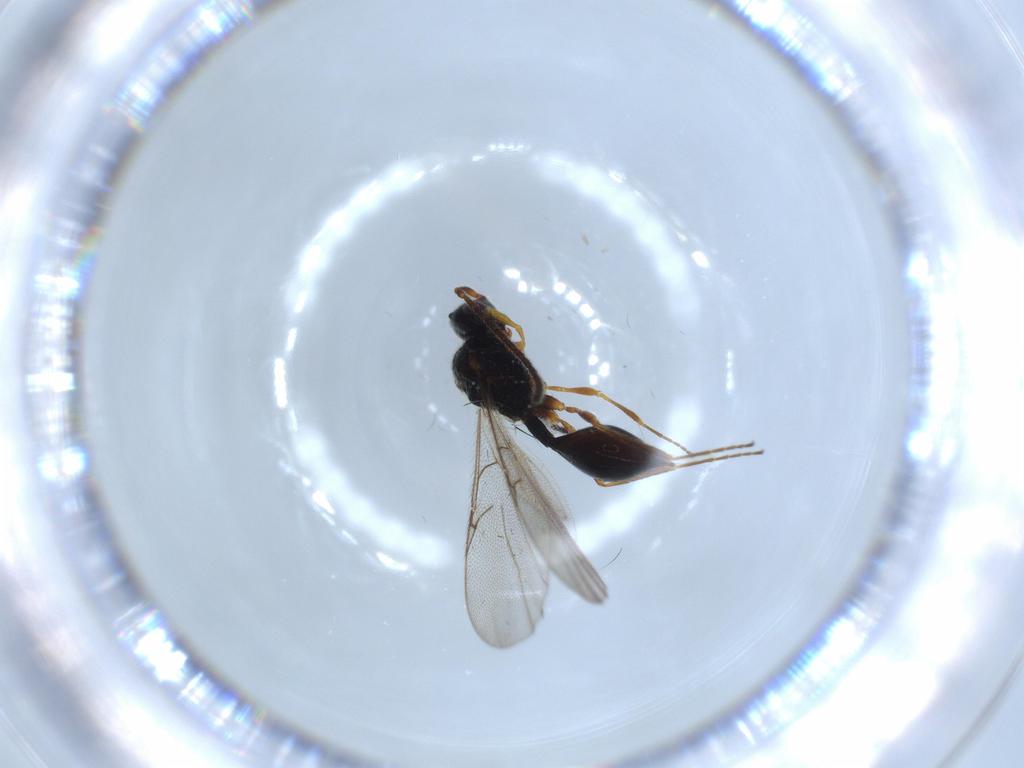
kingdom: Animalia
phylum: Arthropoda
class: Insecta
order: Hymenoptera
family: Diapriidae
